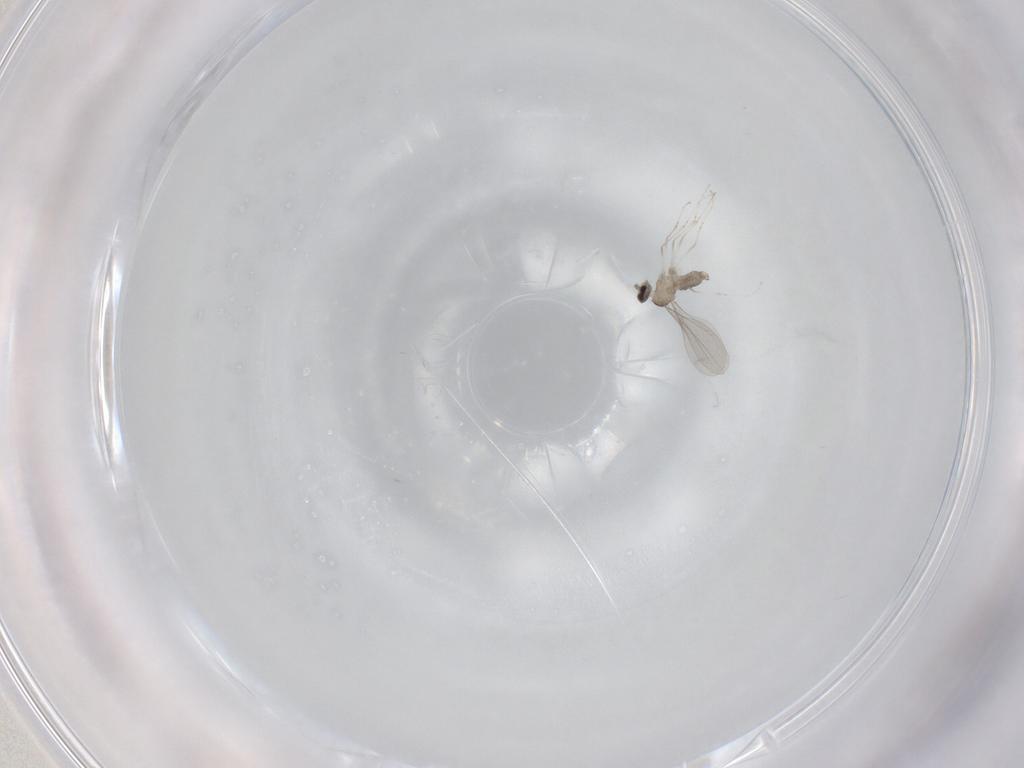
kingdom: Animalia
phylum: Arthropoda
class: Insecta
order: Diptera
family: Cecidomyiidae
